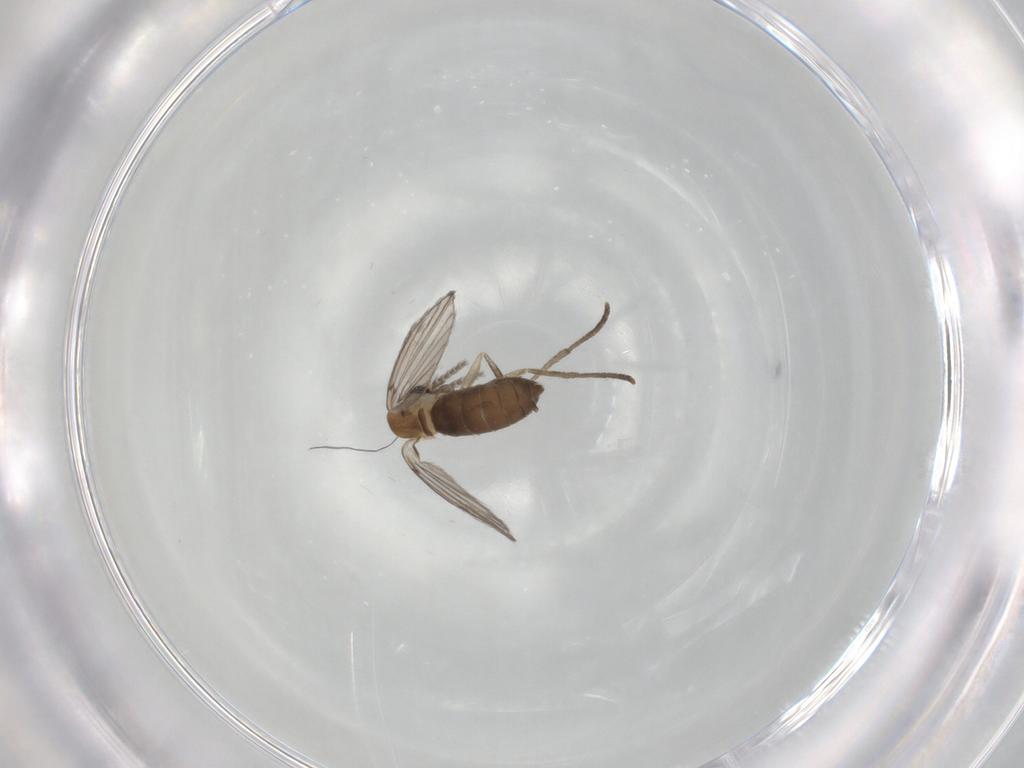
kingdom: Animalia
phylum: Arthropoda
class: Insecta
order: Diptera
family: Psychodidae
